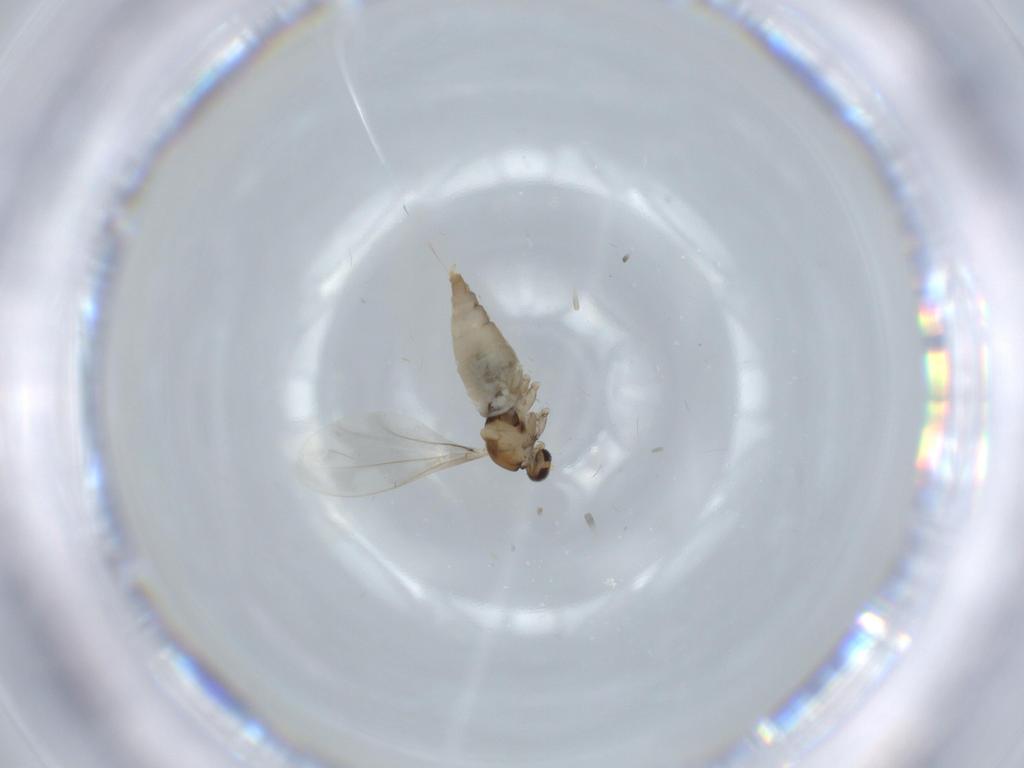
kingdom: Animalia
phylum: Arthropoda
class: Insecta
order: Diptera
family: Cecidomyiidae
